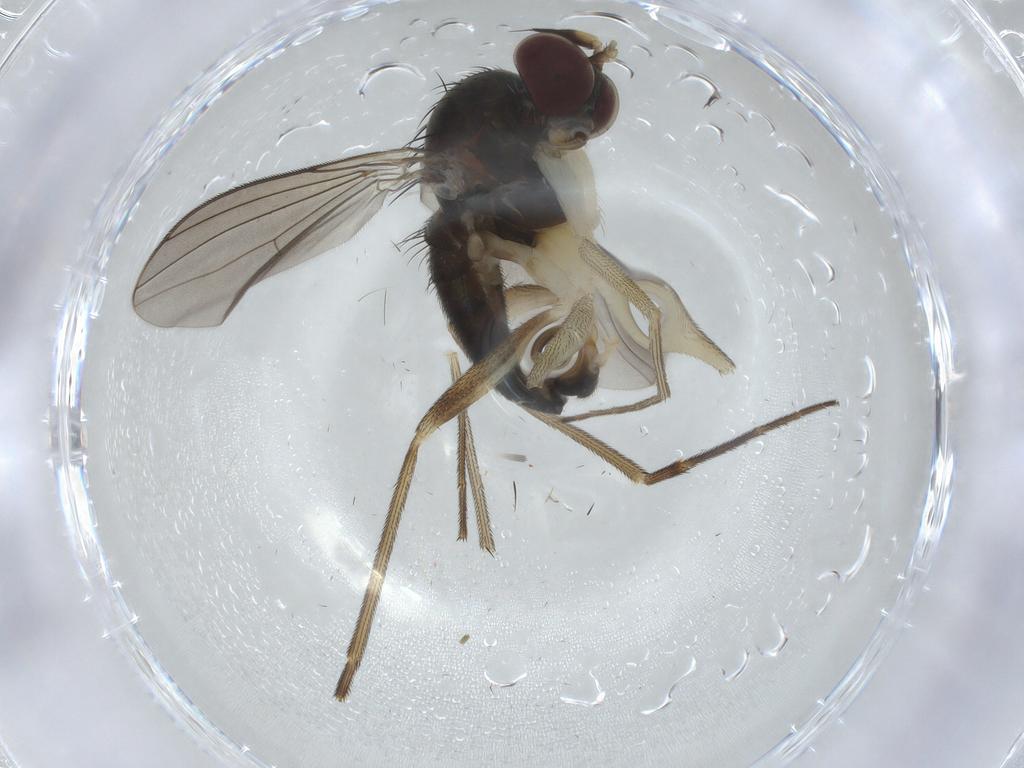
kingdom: Animalia
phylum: Arthropoda
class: Insecta
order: Diptera
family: Dolichopodidae
